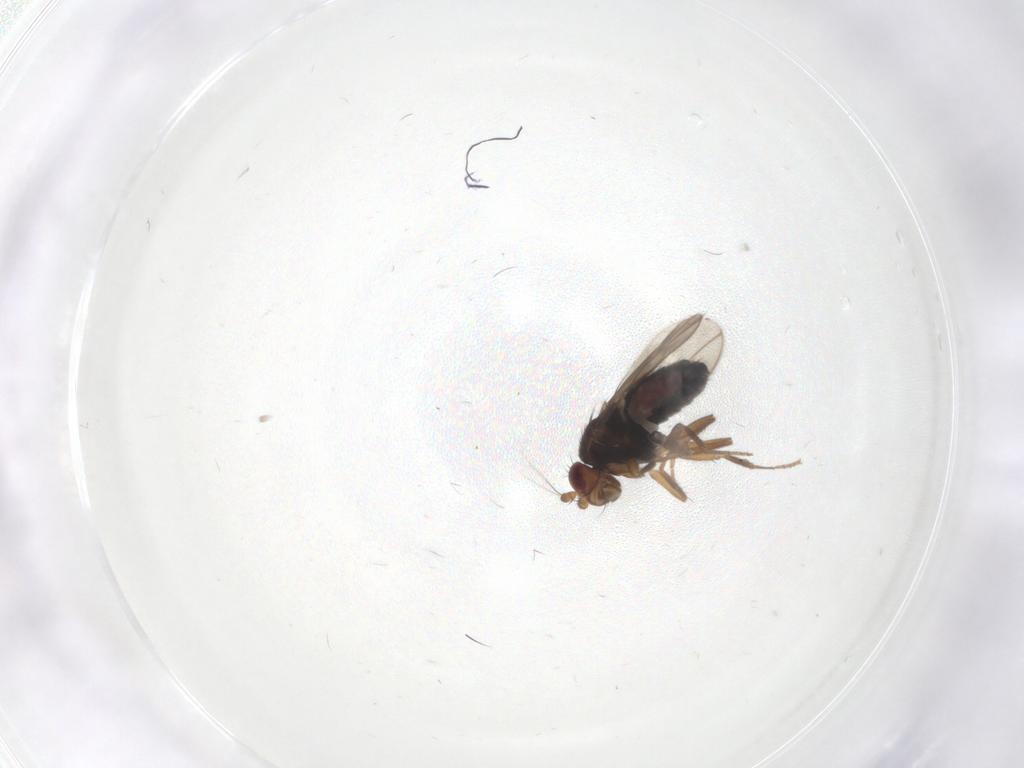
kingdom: Animalia
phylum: Arthropoda
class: Insecta
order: Diptera
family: Sphaeroceridae
